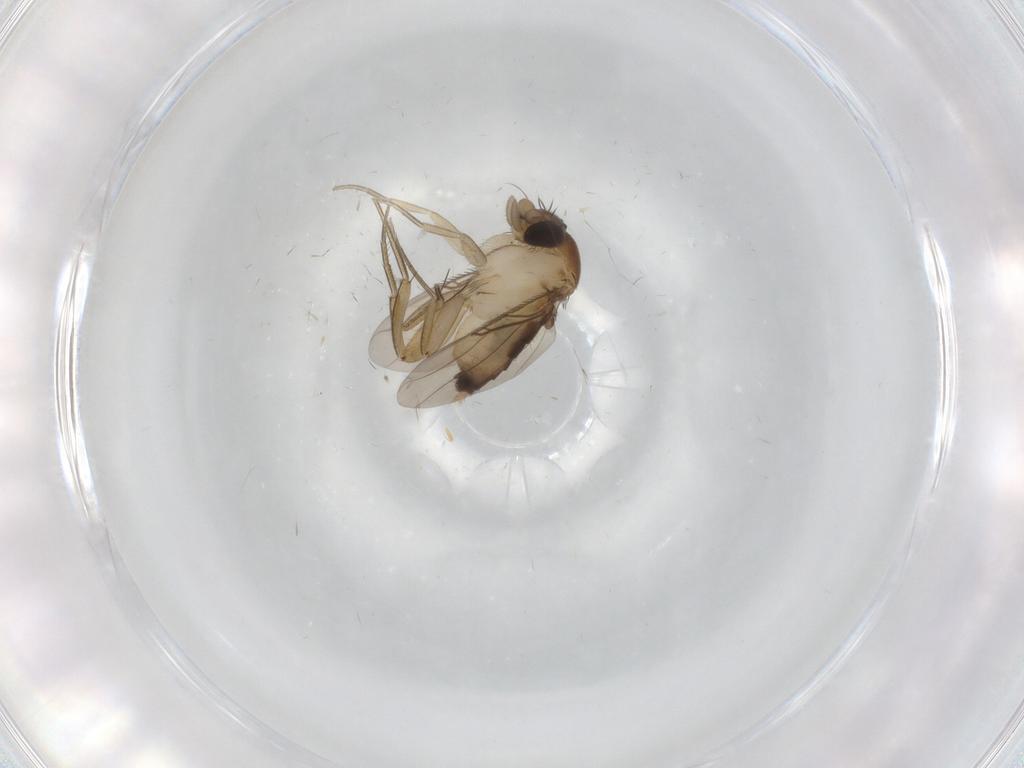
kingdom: Animalia
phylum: Arthropoda
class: Insecta
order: Diptera
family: Phoridae
